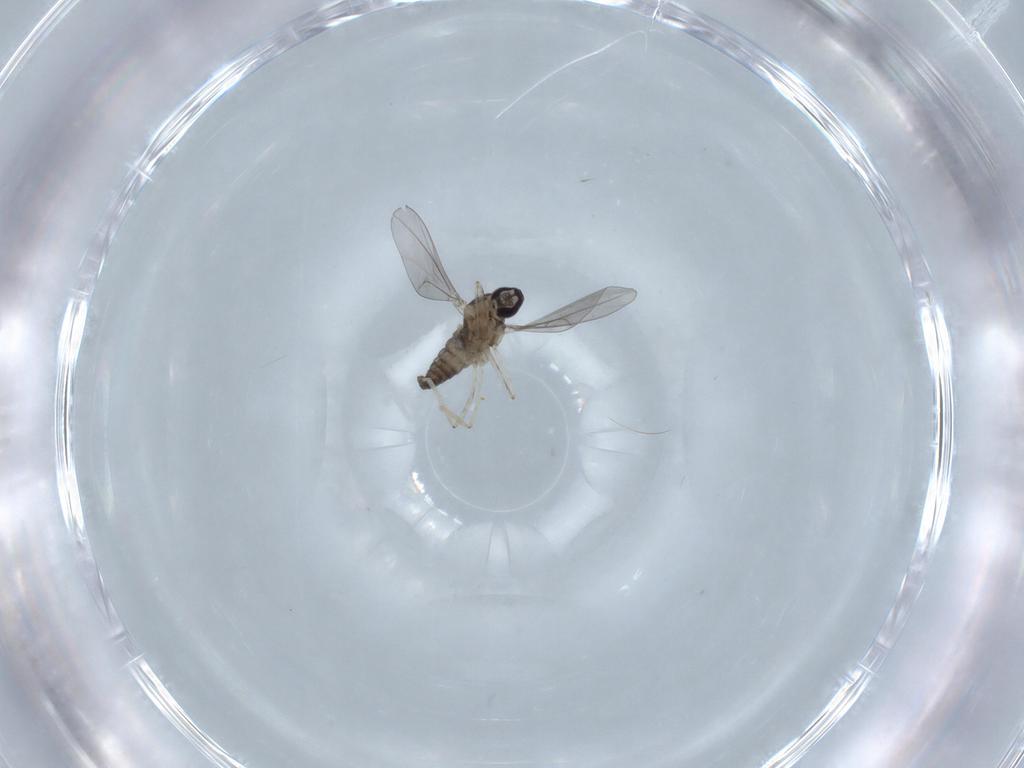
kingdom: Animalia
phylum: Arthropoda
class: Insecta
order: Diptera
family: Cecidomyiidae
